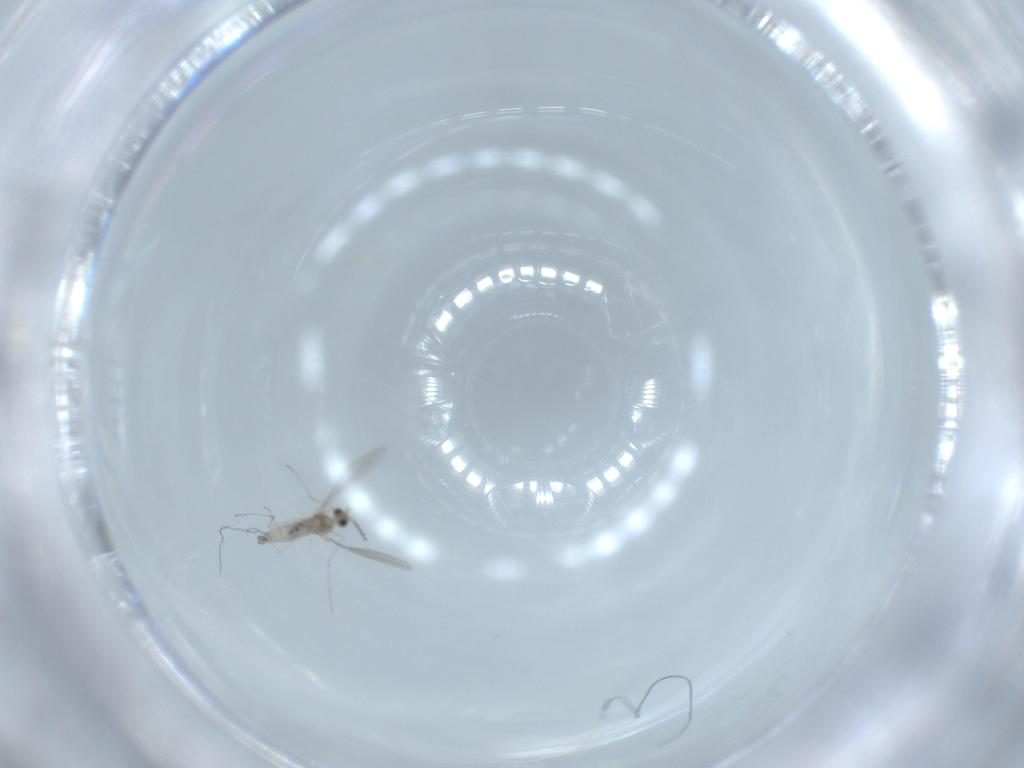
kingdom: Animalia
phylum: Arthropoda
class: Insecta
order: Diptera
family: Cecidomyiidae
